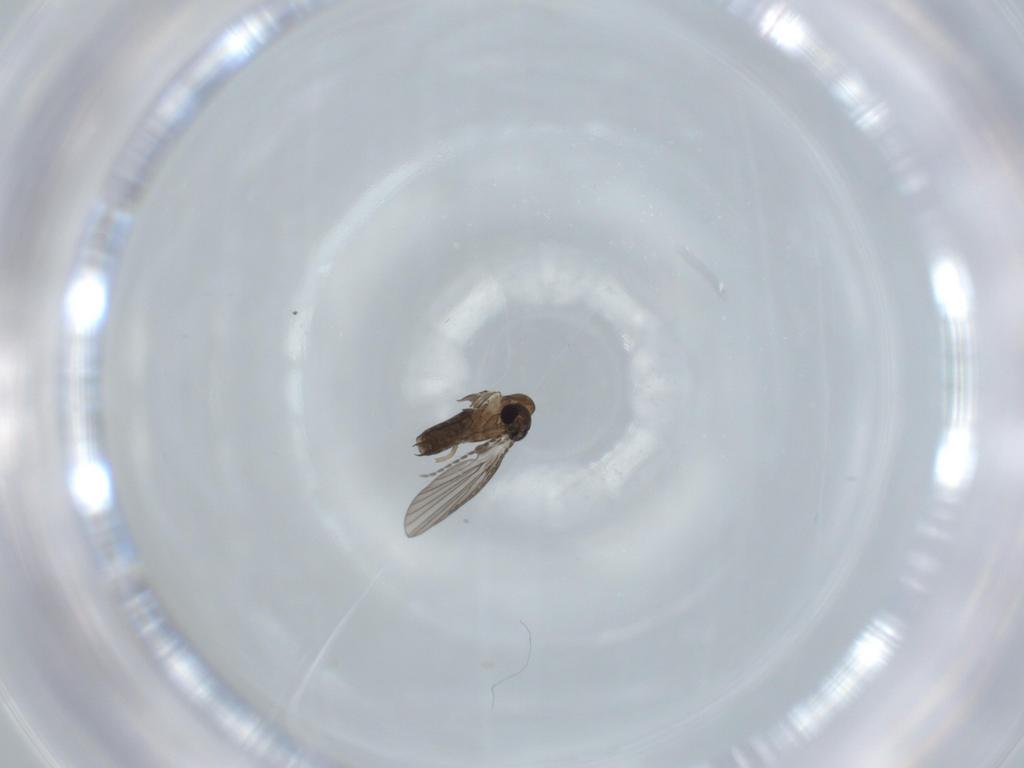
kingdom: Animalia
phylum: Arthropoda
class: Insecta
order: Diptera
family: Psychodidae
